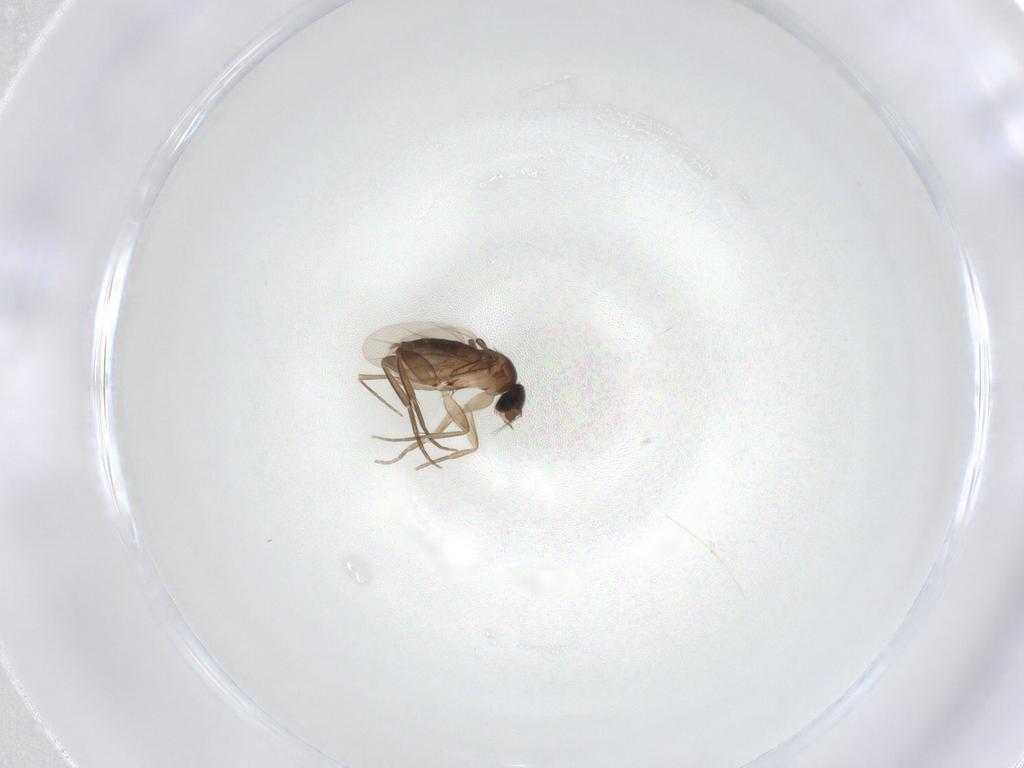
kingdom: Animalia
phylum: Arthropoda
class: Insecta
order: Diptera
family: Phoridae
